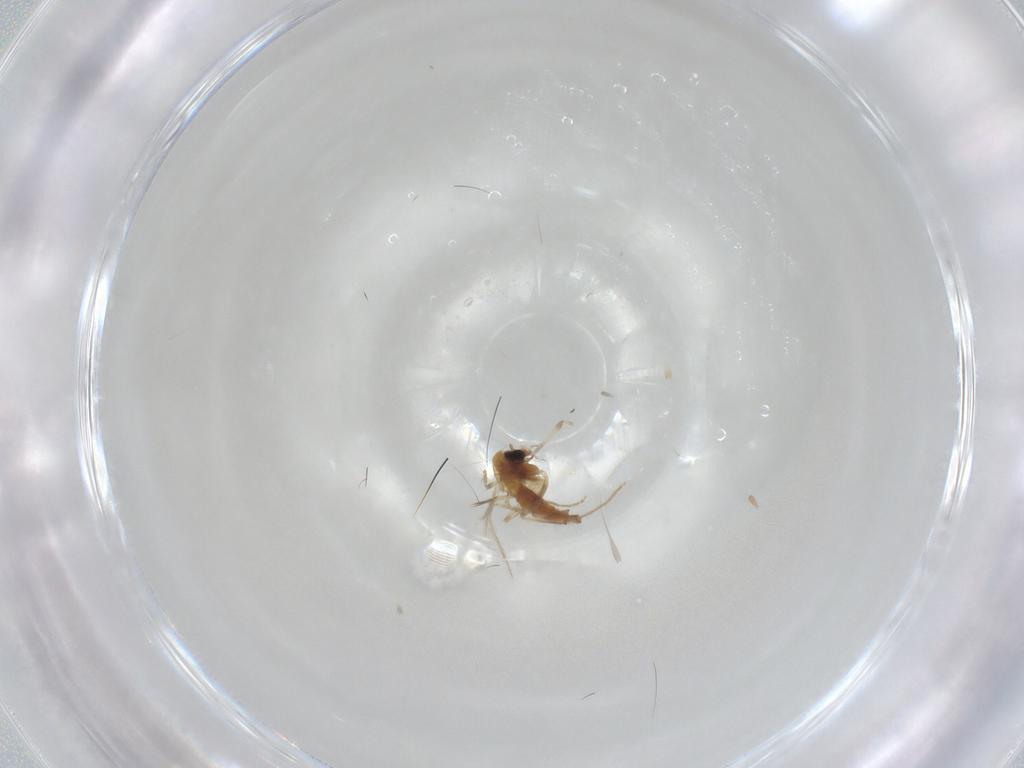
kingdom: Animalia
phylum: Arthropoda
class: Insecta
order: Diptera
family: Chironomidae
